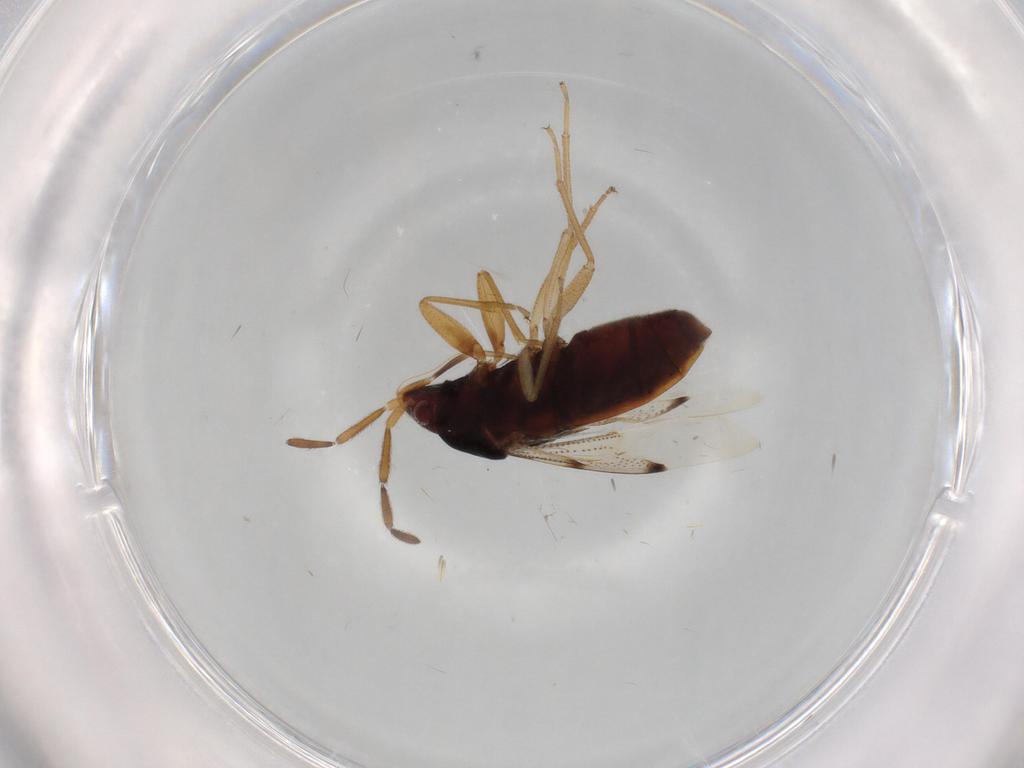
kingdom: Animalia
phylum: Arthropoda
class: Insecta
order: Hemiptera
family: Rhyparochromidae
